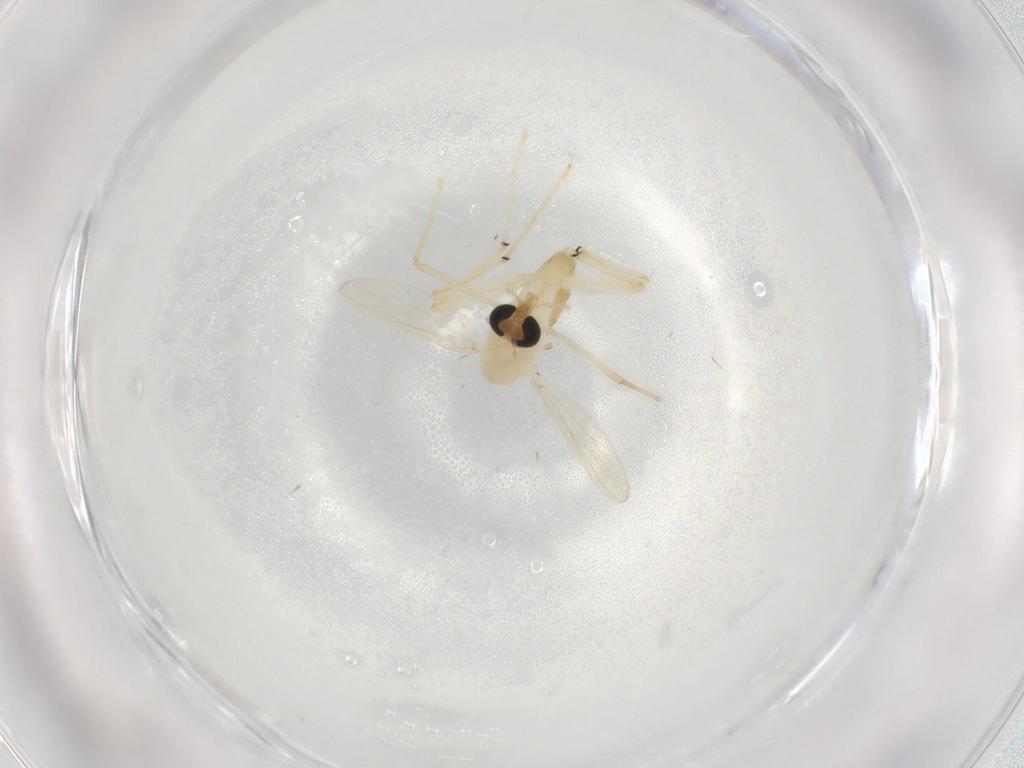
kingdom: Animalia
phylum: Arthropoda
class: Insecta
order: Diptera
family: Chironomidae
